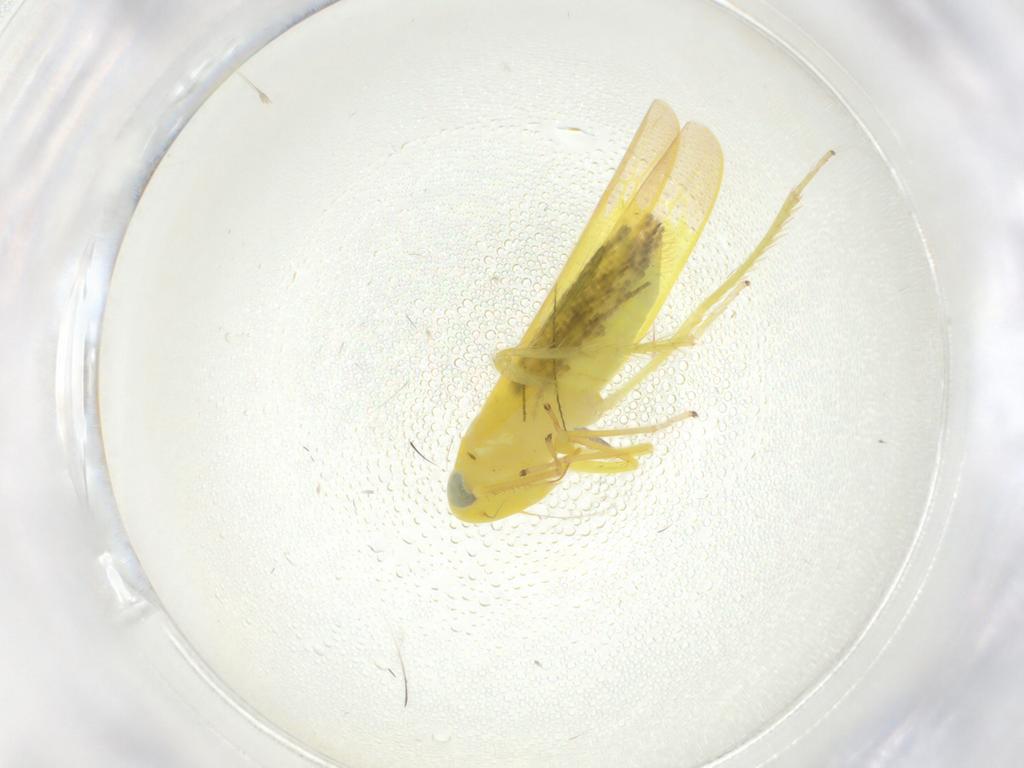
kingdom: Animalia
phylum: Arthropoda
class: Insecta
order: Hemiptera
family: Cicadellidae
